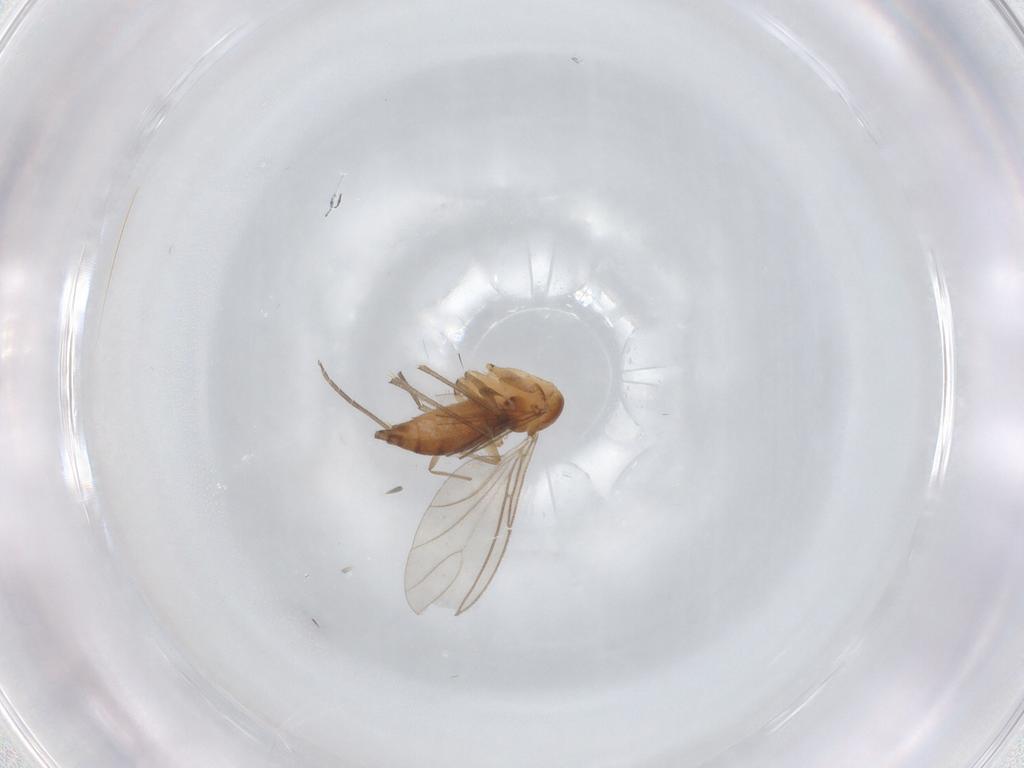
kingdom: Animalia
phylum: Arthropoda
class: Insecta
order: Diptera
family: Sciaridae
